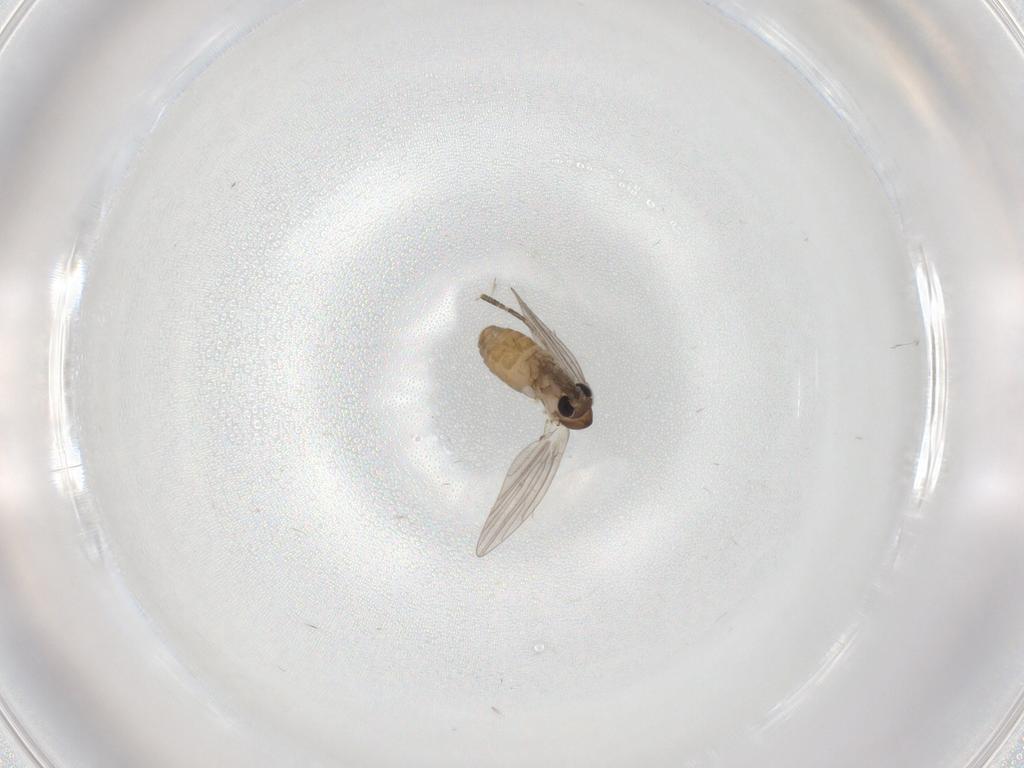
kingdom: Animalia
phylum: Arthropoda
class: Insecta
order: Diptera
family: Psychodidae
